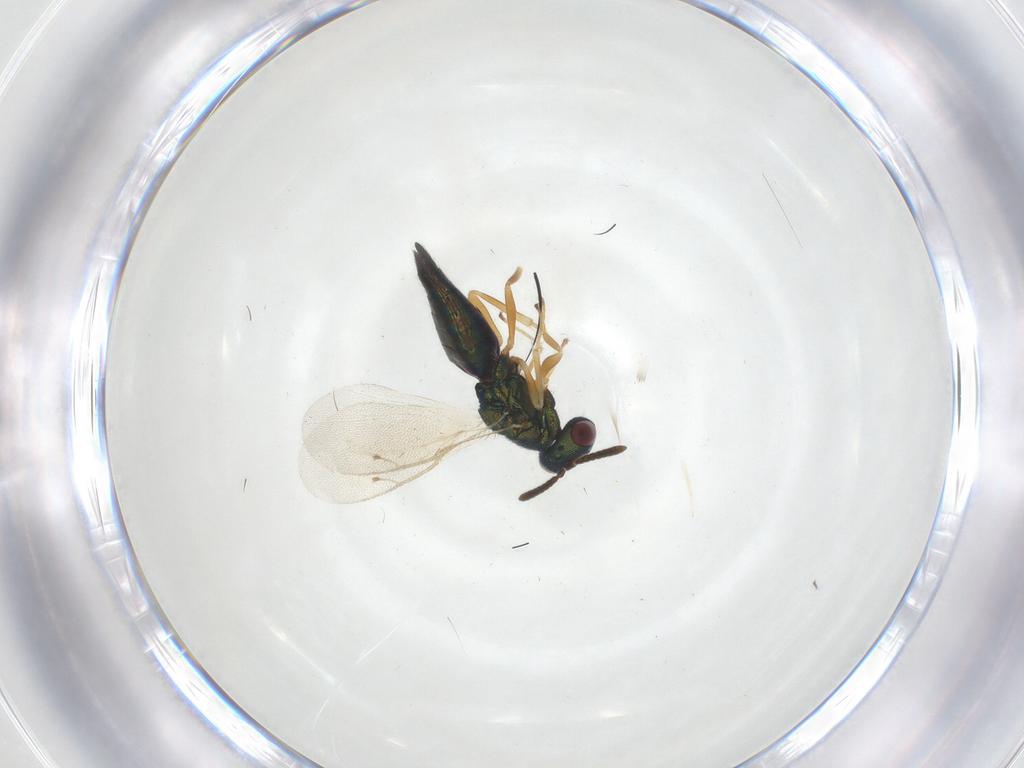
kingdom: Animalia
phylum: Arthropoda
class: Insecta
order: Hymenoptera
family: Pteromalidae
